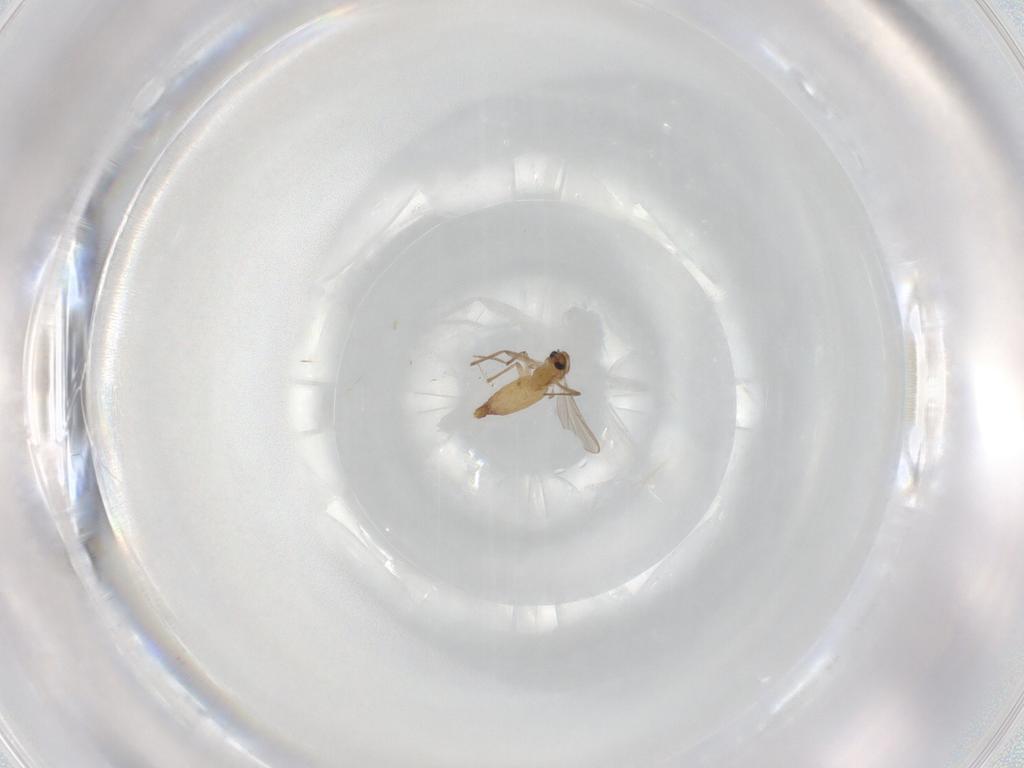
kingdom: Animalia
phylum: Arthropoda
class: Insecta
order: Diptera
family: Chironomidae
